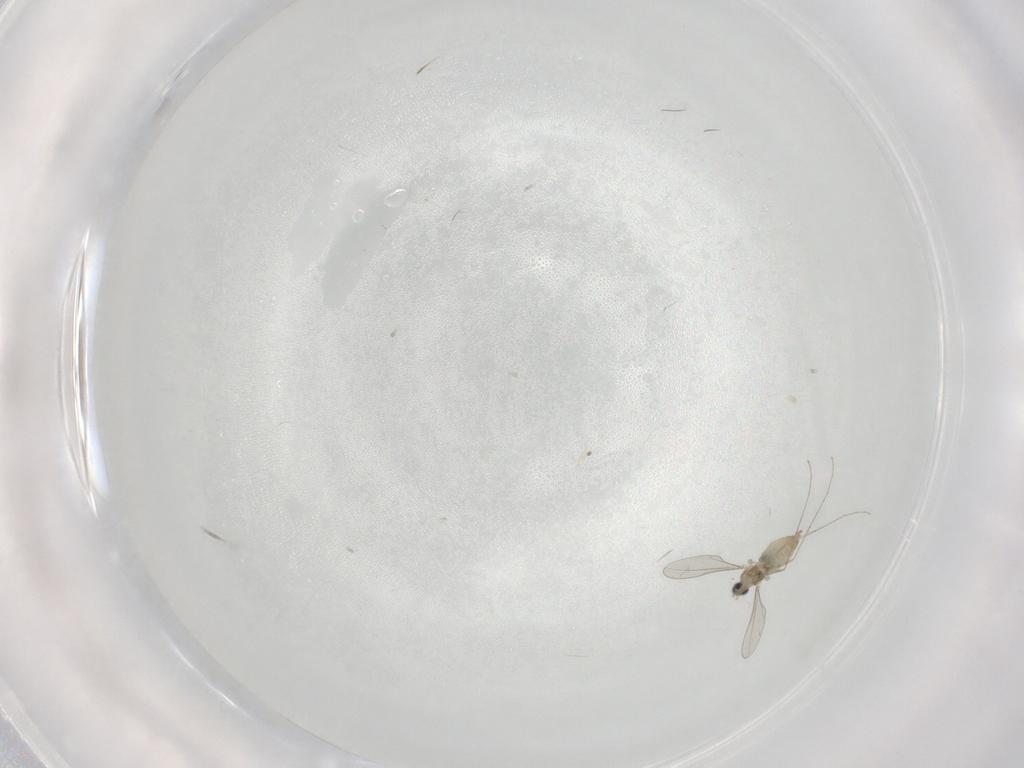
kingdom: Animalia
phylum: Arthropoda
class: Insecta
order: Diptera
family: Cecidomyiidae
